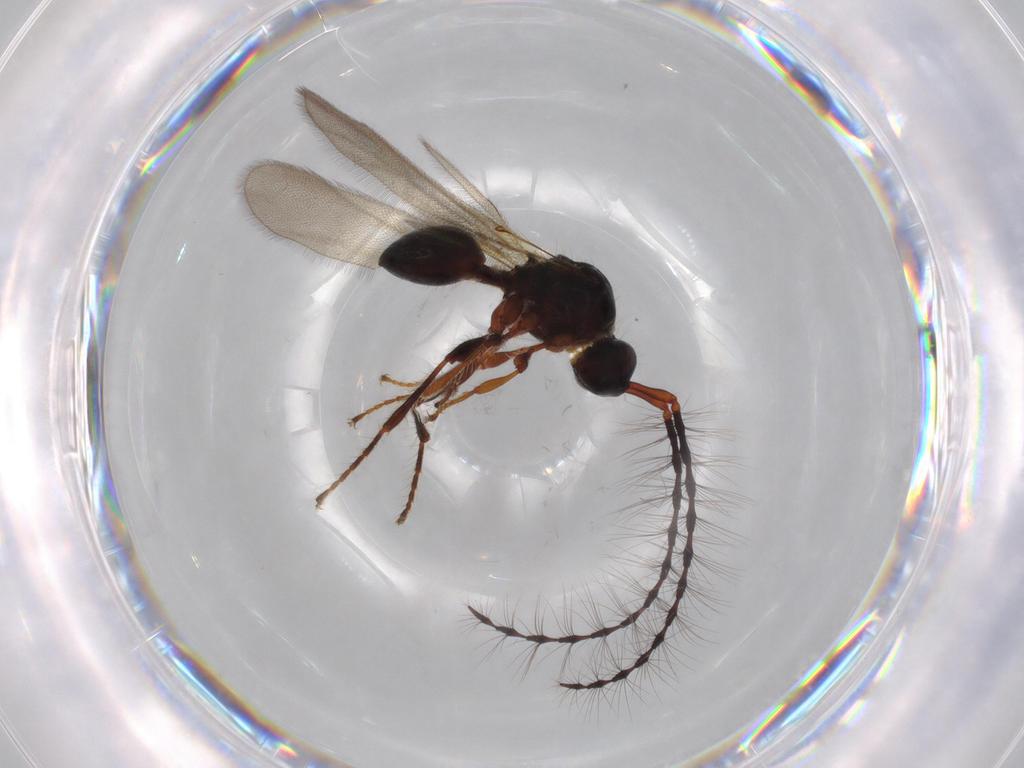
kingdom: Animalia
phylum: Arthropoda
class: Insecta
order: Hymenoptera
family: Diapriidae
